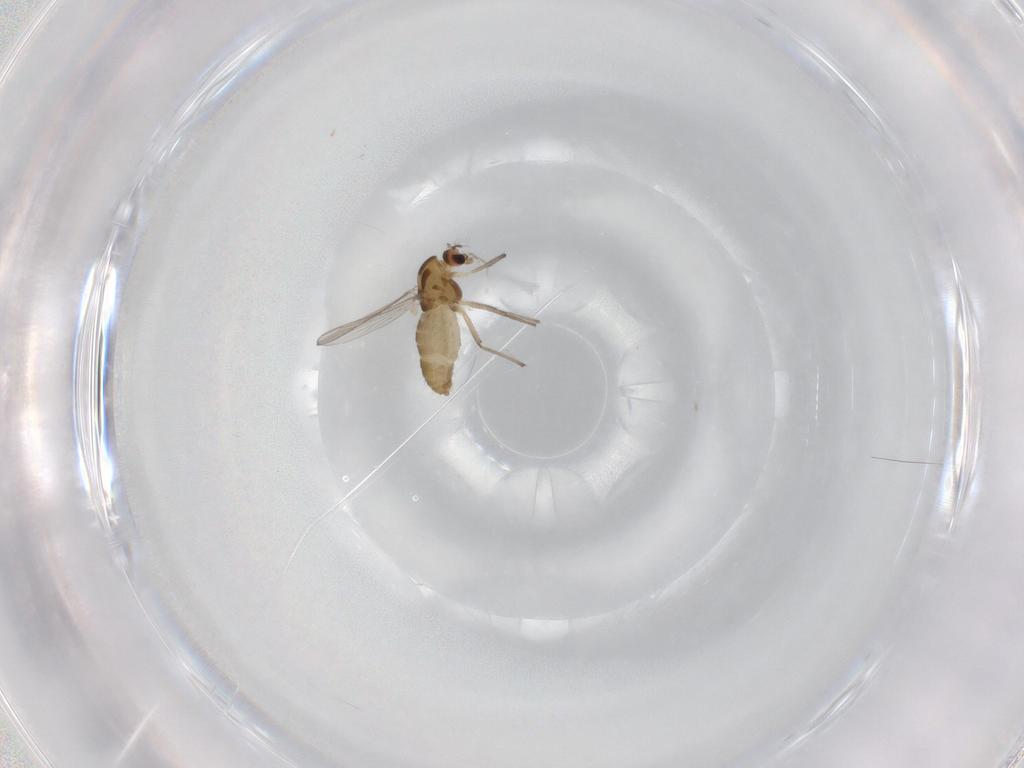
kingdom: Animalia
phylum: Arthropoda
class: Insecta
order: Diptera
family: Chironomidae
